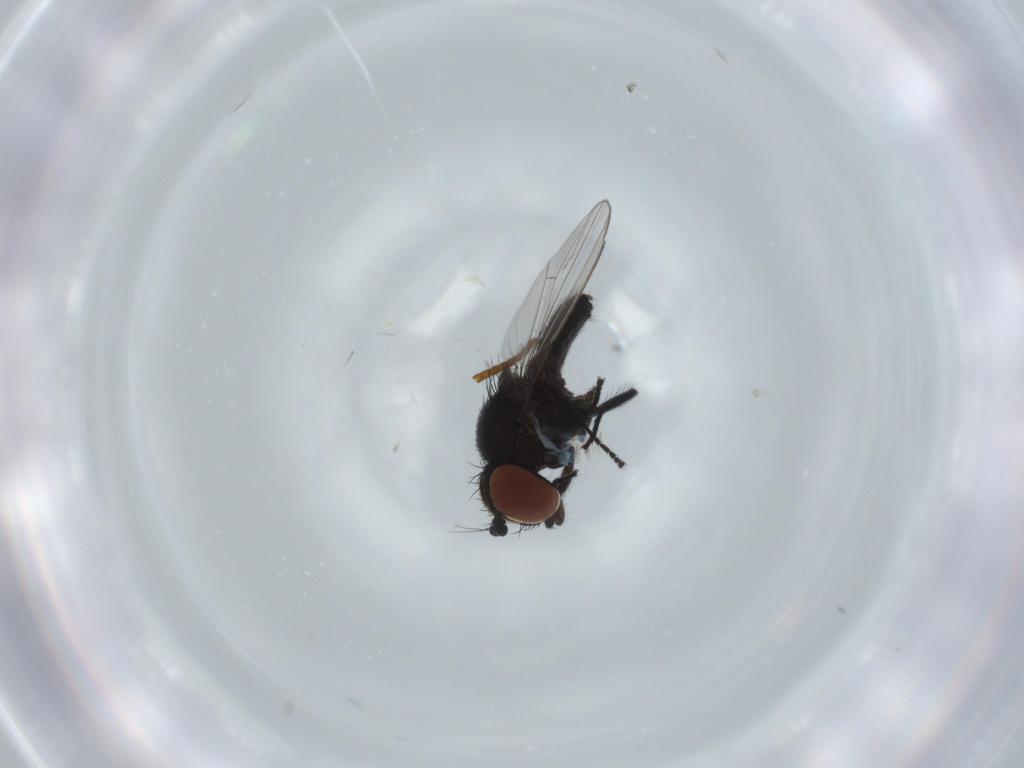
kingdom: Animalia
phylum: Arthropoda
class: Insecta
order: Diptera
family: Milichiidae
